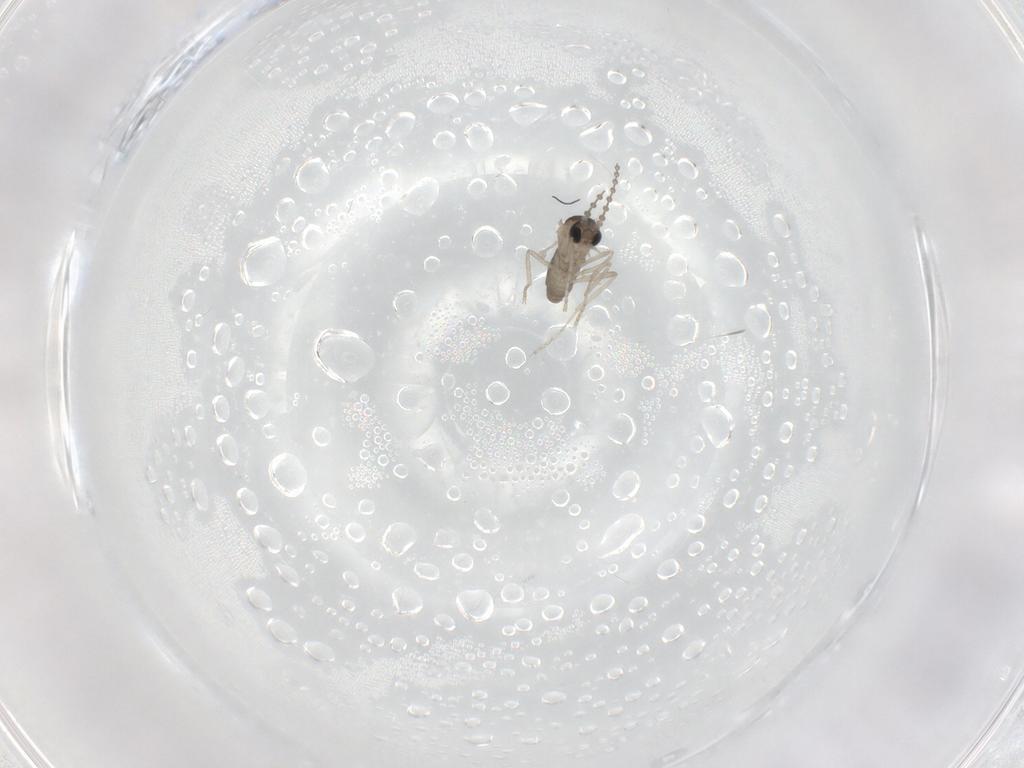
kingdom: Animalia
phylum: Arthropoda
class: Insecta
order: Diptera
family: Cecidomyiidae
